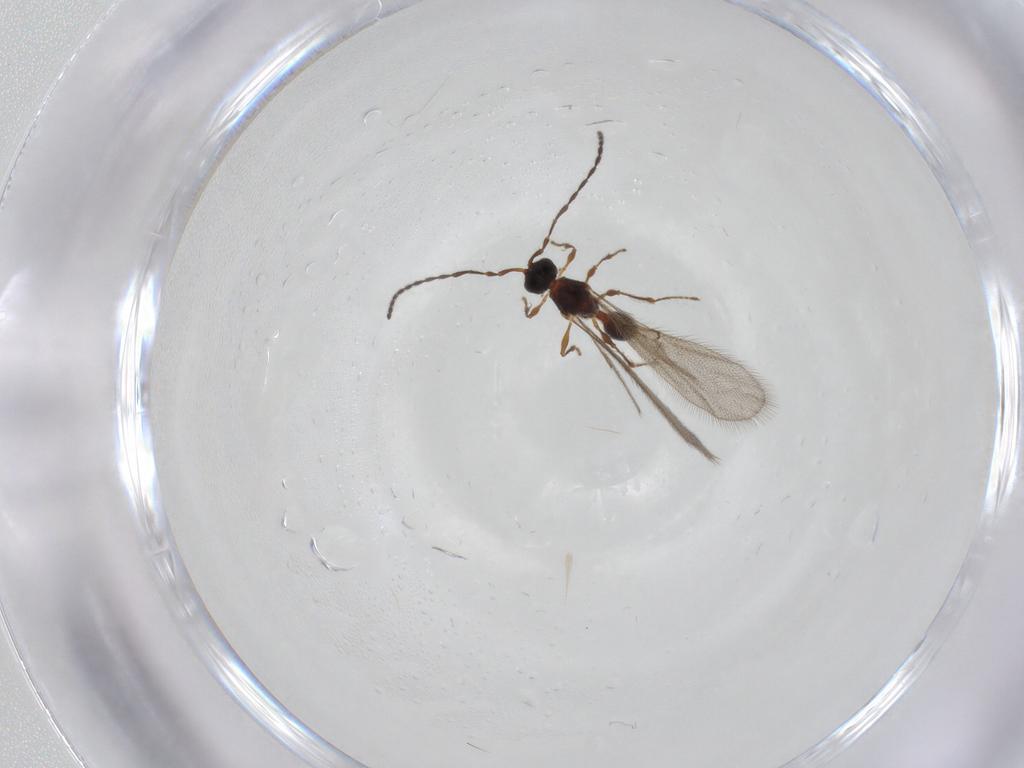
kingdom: Animalia
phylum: Arthropoda
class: Insecta
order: Hymenoptera
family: Diapriidae
